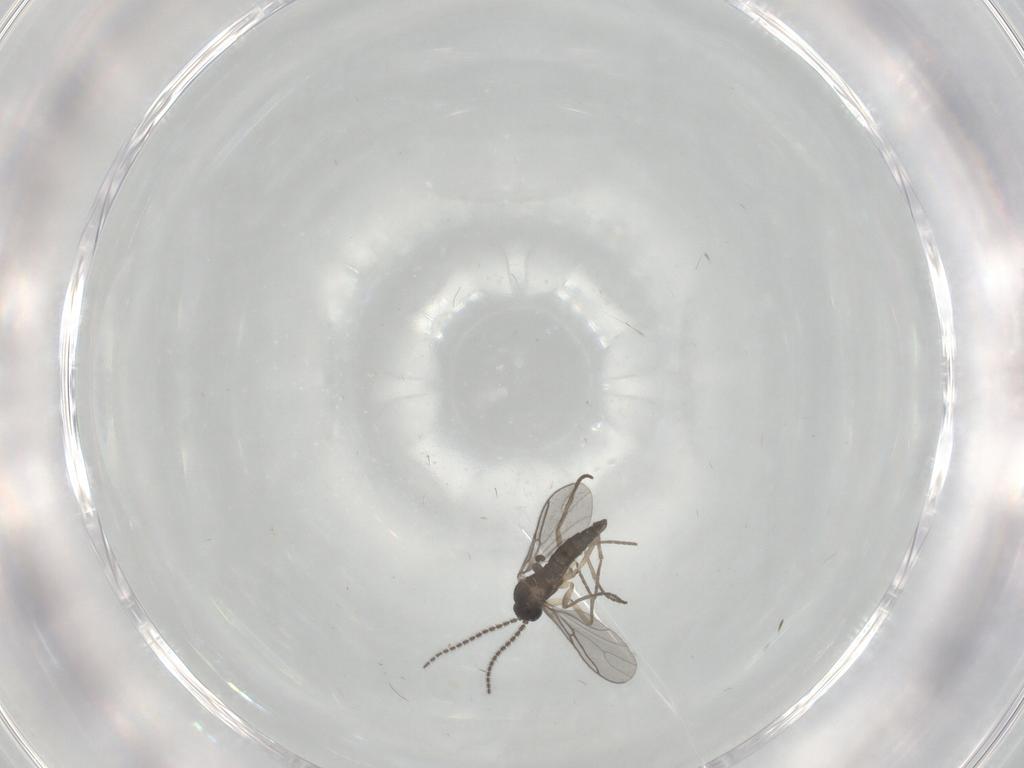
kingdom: Animalia
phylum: Arthropoda
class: Insecta
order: Diptera
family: Sciaridae
